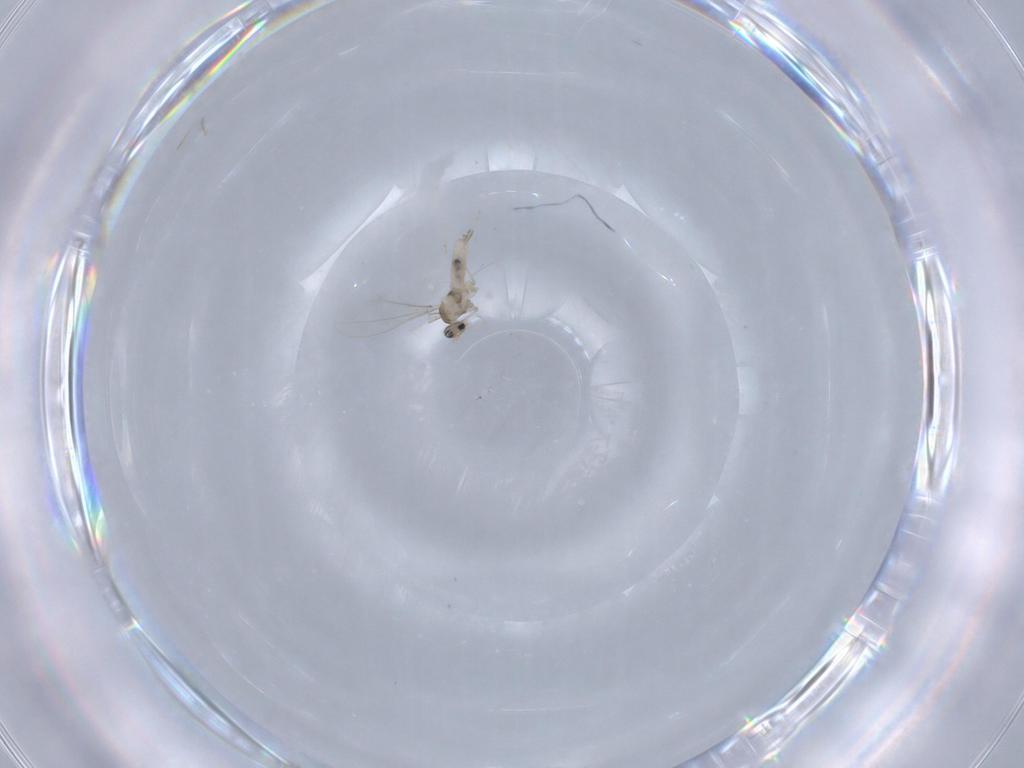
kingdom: Animalia
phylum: Arthropoda
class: Insecta
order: Diptera
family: Cecidomyiidae
